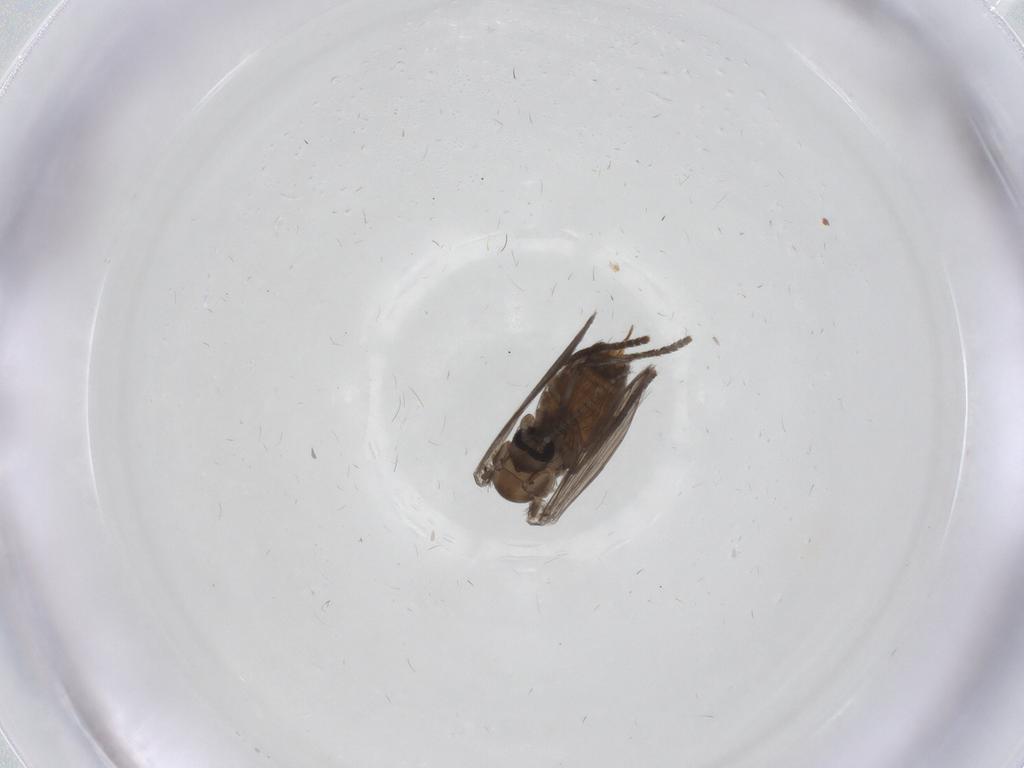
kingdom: Animalia
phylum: Arthropoda
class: Insecta
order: Diptera
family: Psychodidae
